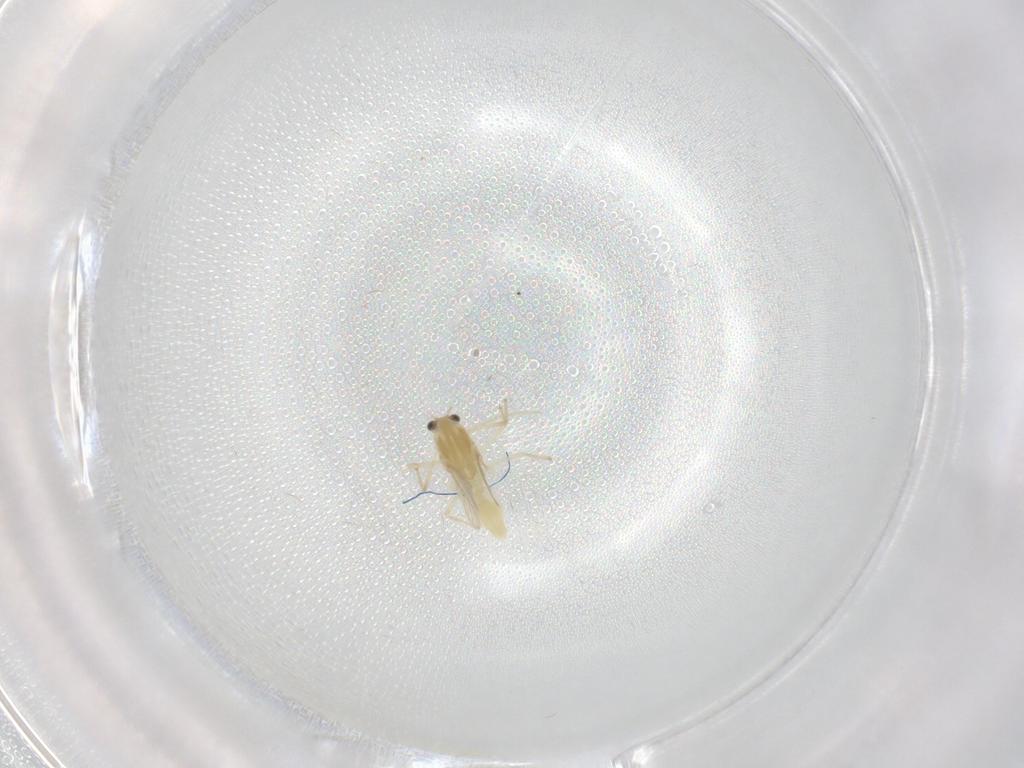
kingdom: Animalia
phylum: Arthropoda
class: Insecta
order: Diptera
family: Chironomidae
